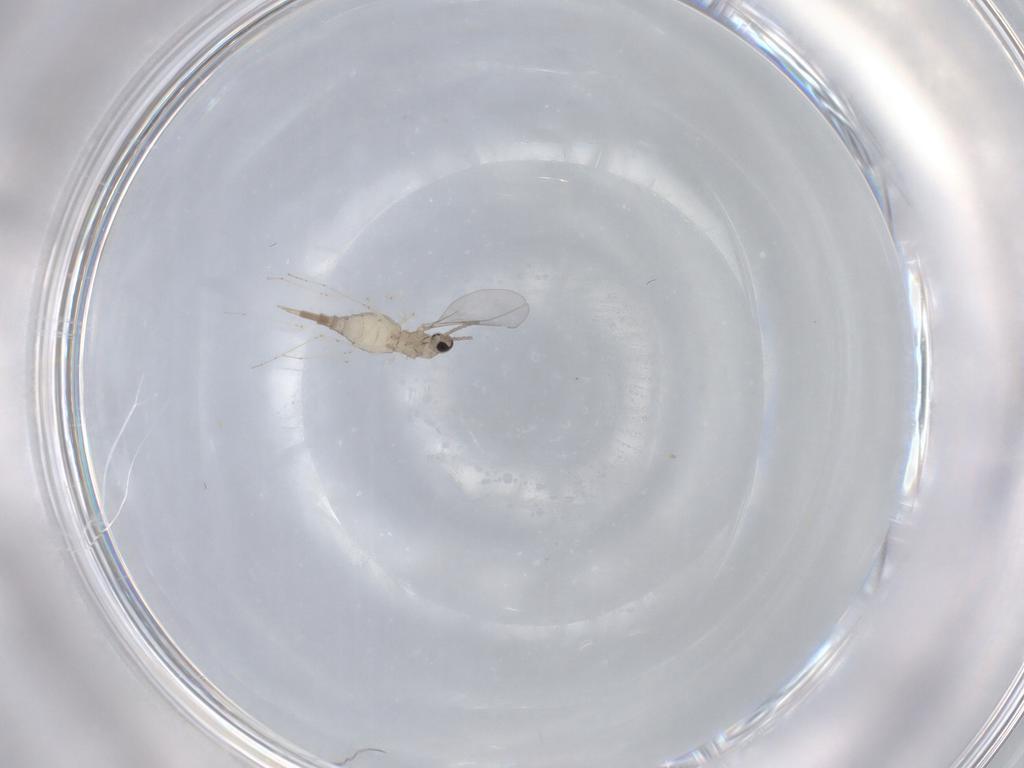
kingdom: Animalia
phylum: Arthropoda
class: Insecta
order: Diptera
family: Cecidomyiidae
